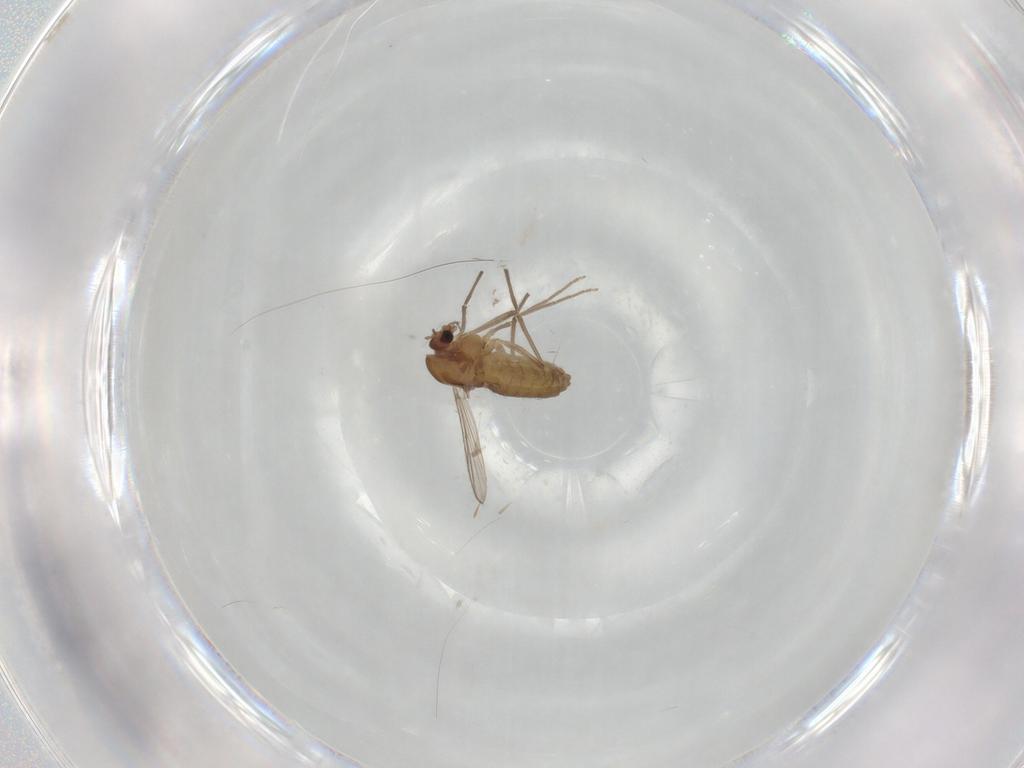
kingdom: Animalia
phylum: Arthropoda
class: Insecta
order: Diptera
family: Chironomidae
